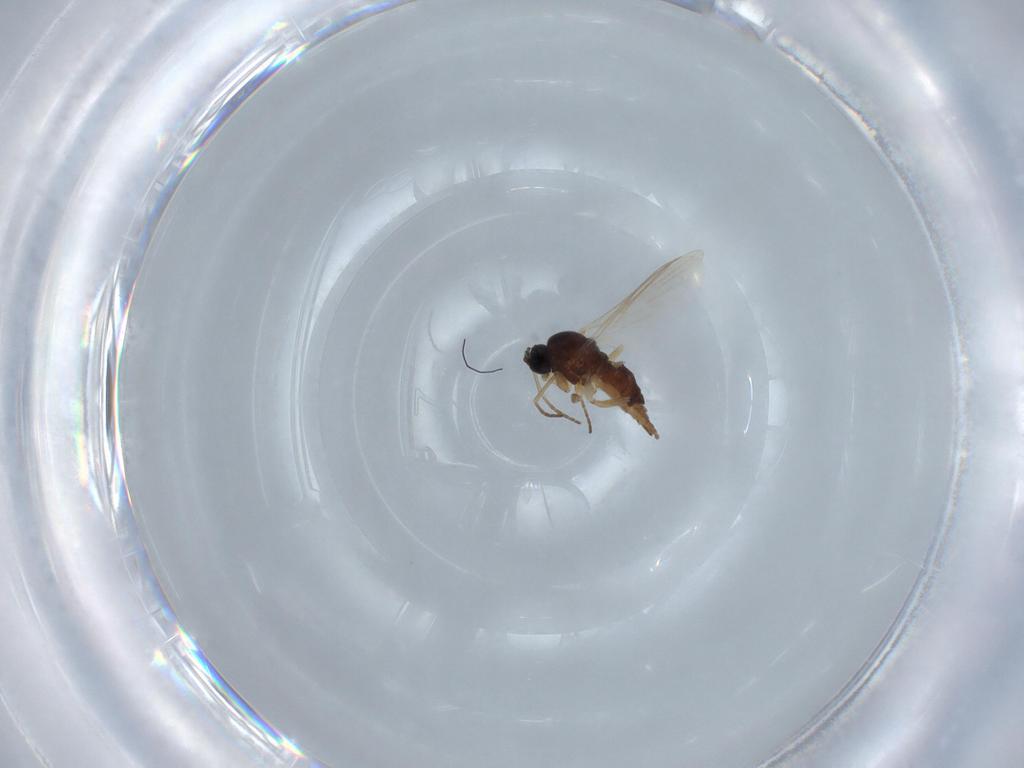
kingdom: Animalia
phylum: Arthropoda
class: Insecta
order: Diptera
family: Sciaridae
